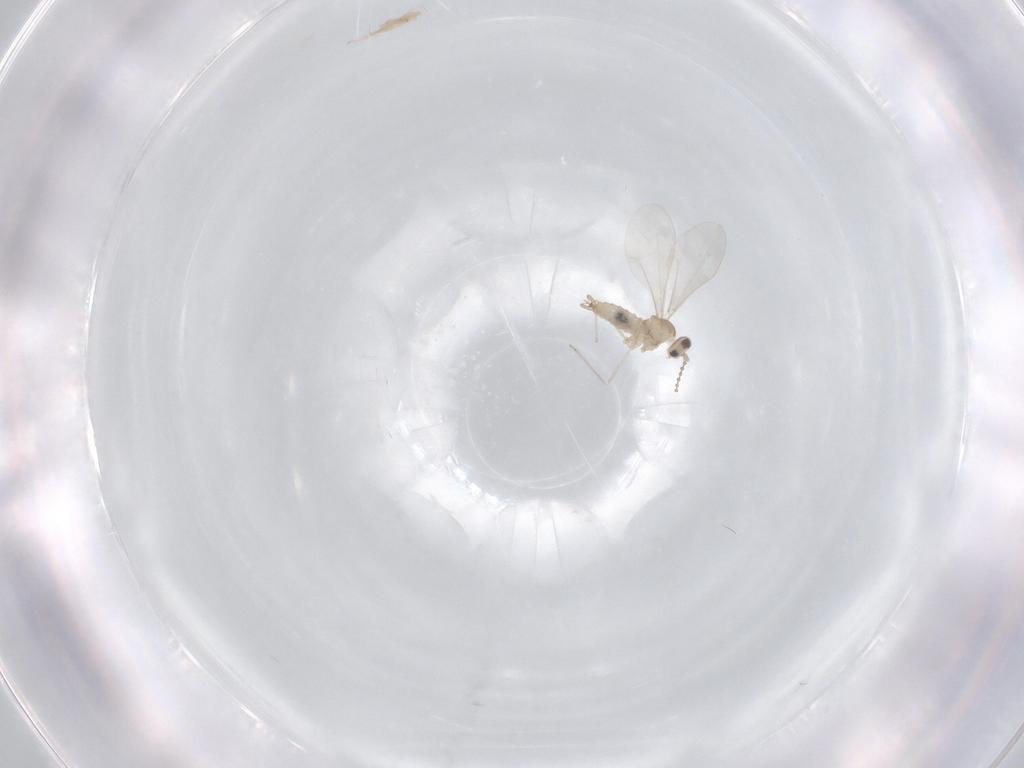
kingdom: Animalia
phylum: Arthropoda
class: Insecta
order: Diptera
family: Dolichopodidae
